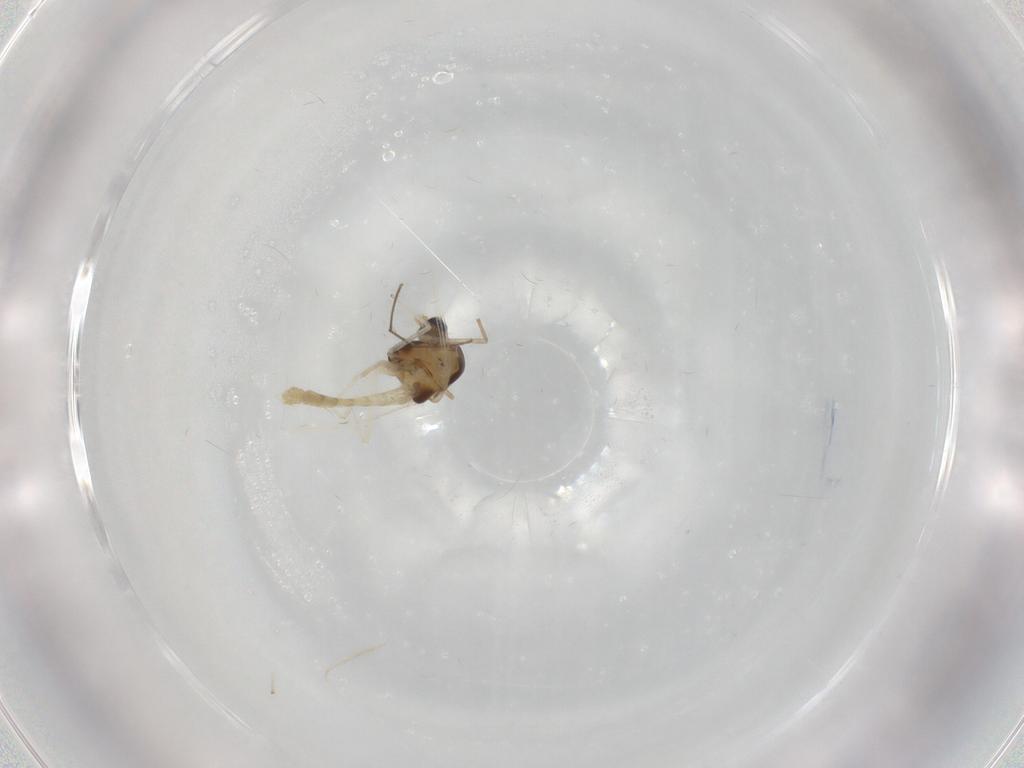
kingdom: Animalia
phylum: Arthropoda
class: Insecta
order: Diptera
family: Chironomidae
